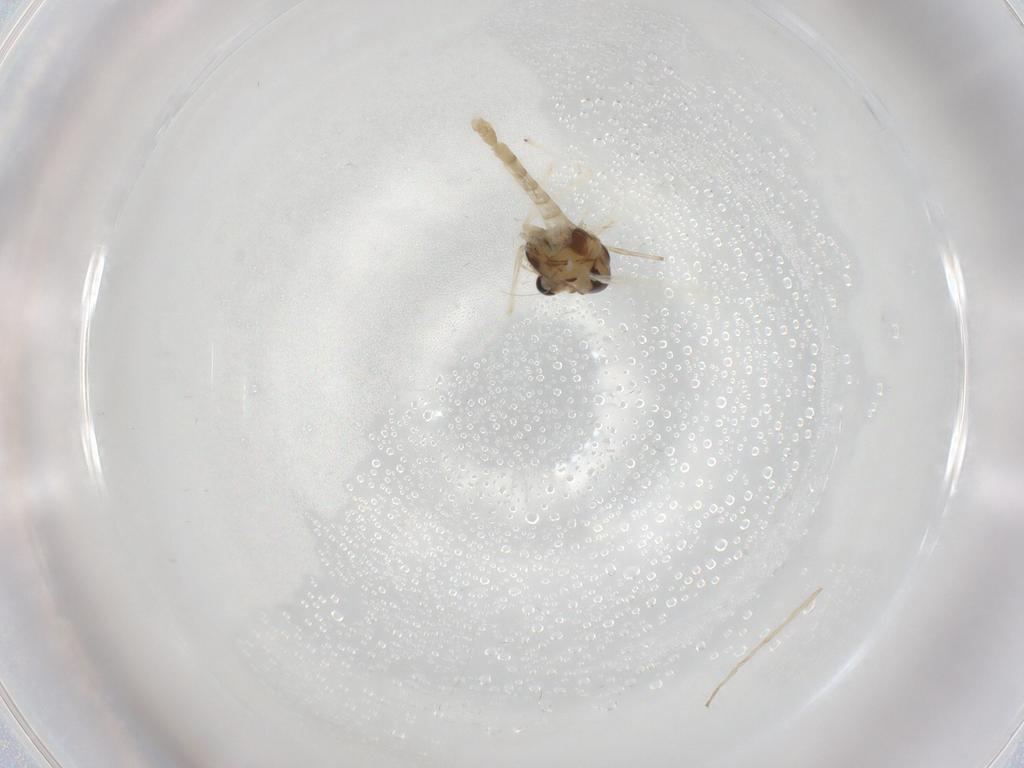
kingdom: Animalia
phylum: Arthropoda
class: Insecta
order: Diptera
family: Chironomidae
